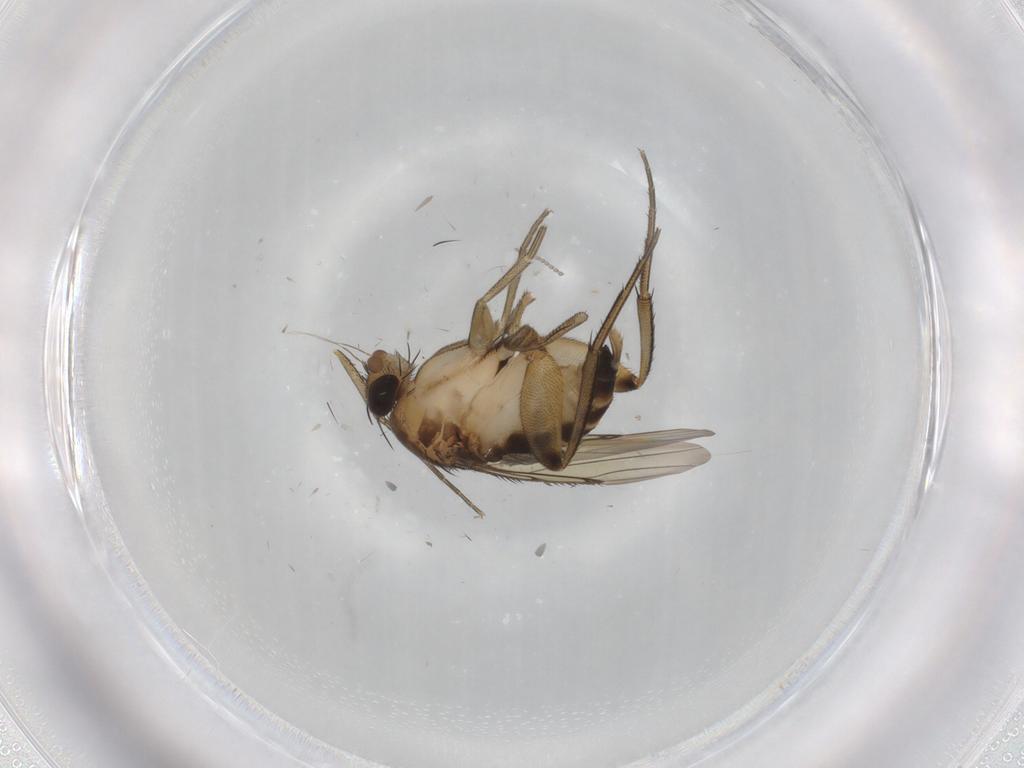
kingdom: Animalia
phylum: Arthropoda
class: Insecta
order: Diptera
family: Phoridae
